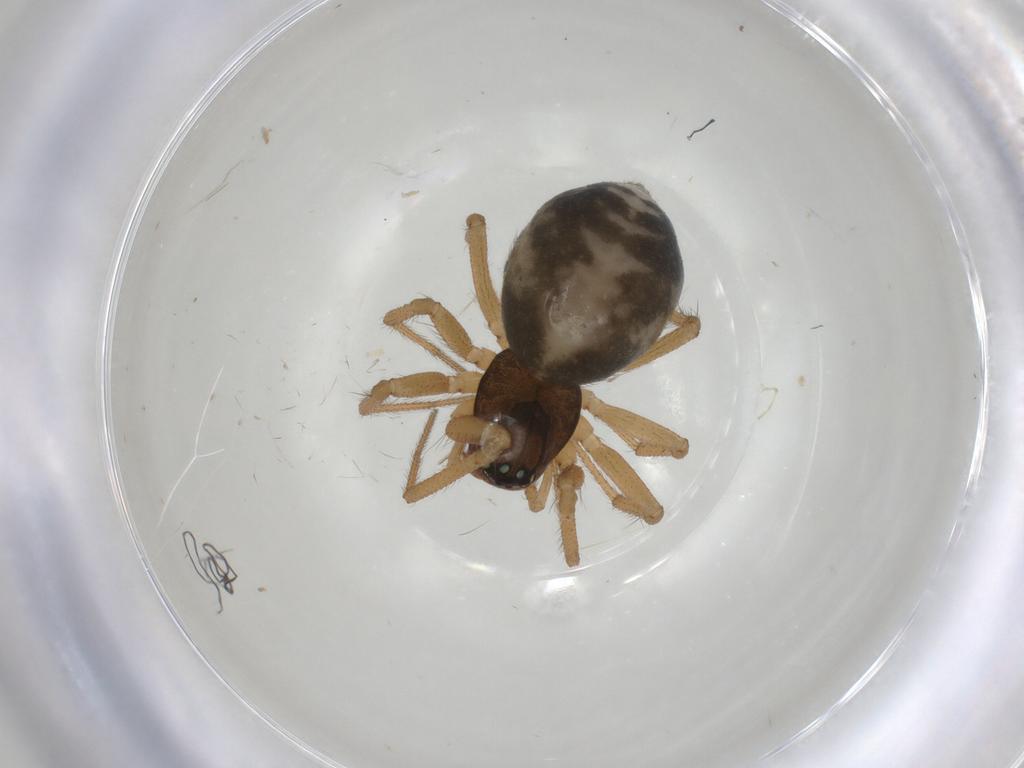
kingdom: Animalia
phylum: Arthropoda
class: Arachnida
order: Araneae
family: Linyphiidae
